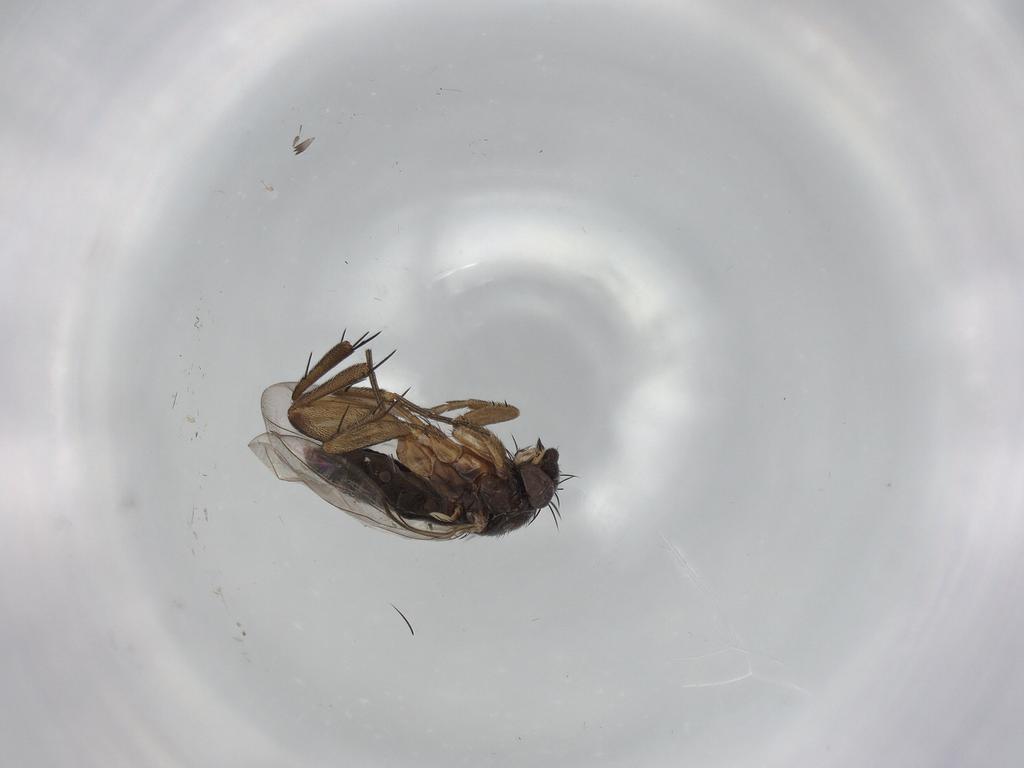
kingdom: Animalia
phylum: Arthropoda
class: Insecta
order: Diptera
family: Phoridae
